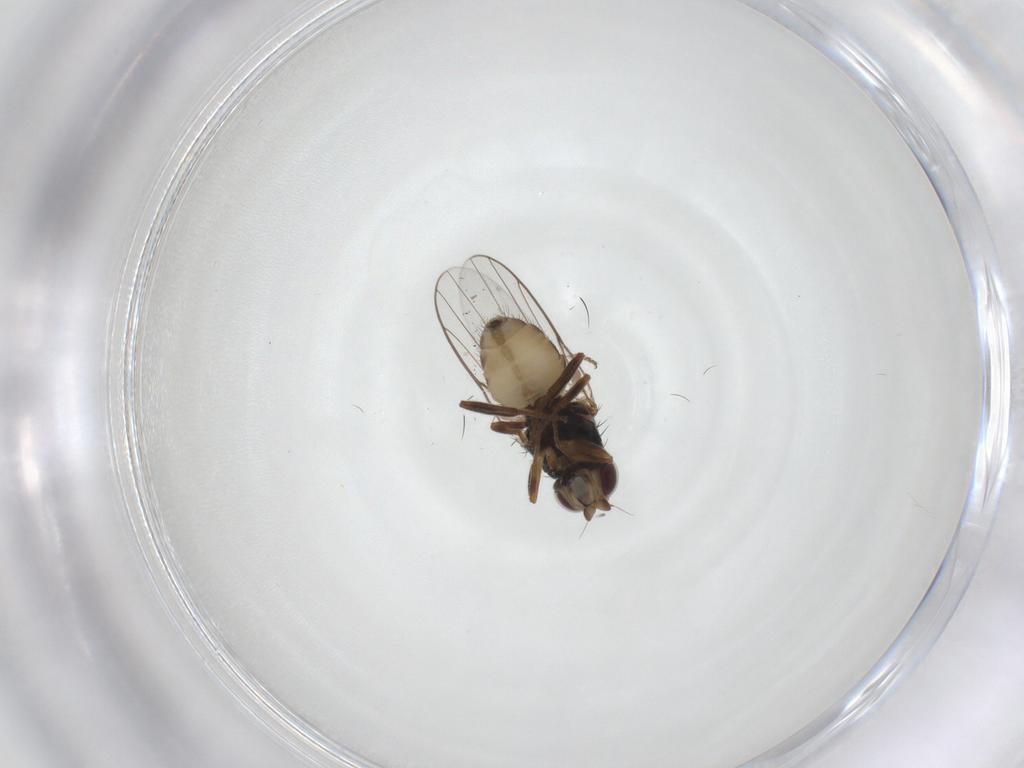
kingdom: Animalia
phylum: Arthropoda
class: Insecta
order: Diptera
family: Chloropidae
